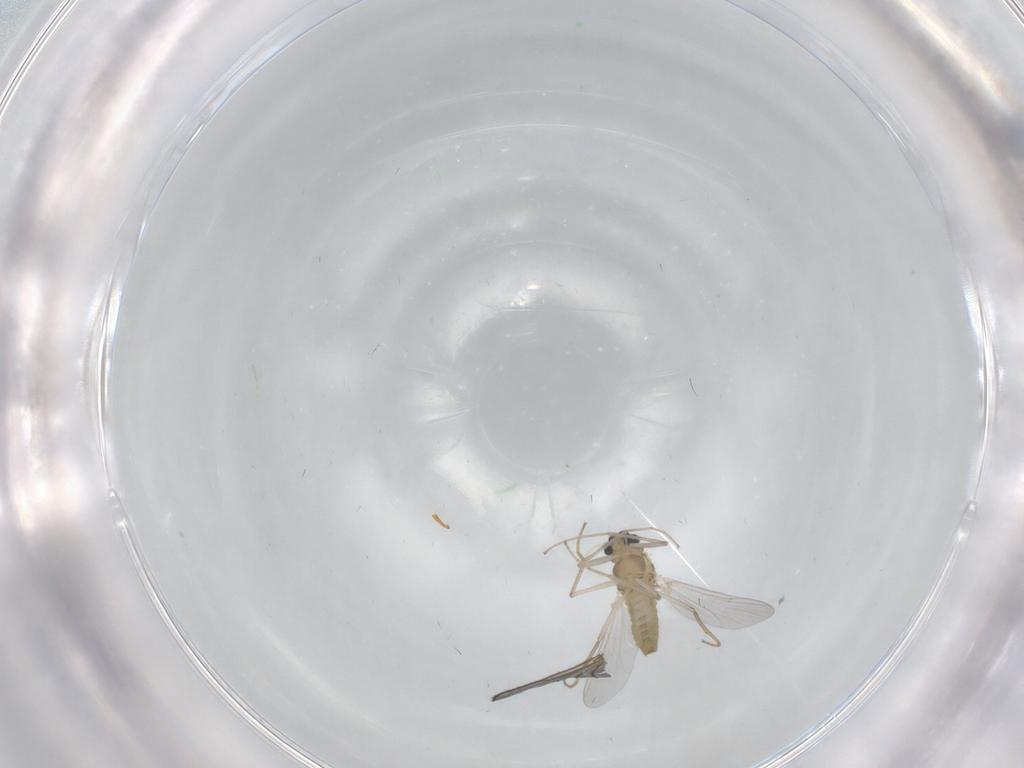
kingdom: Animalia
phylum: Arthropoda
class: Insecta
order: Diptera
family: Chironomidae
